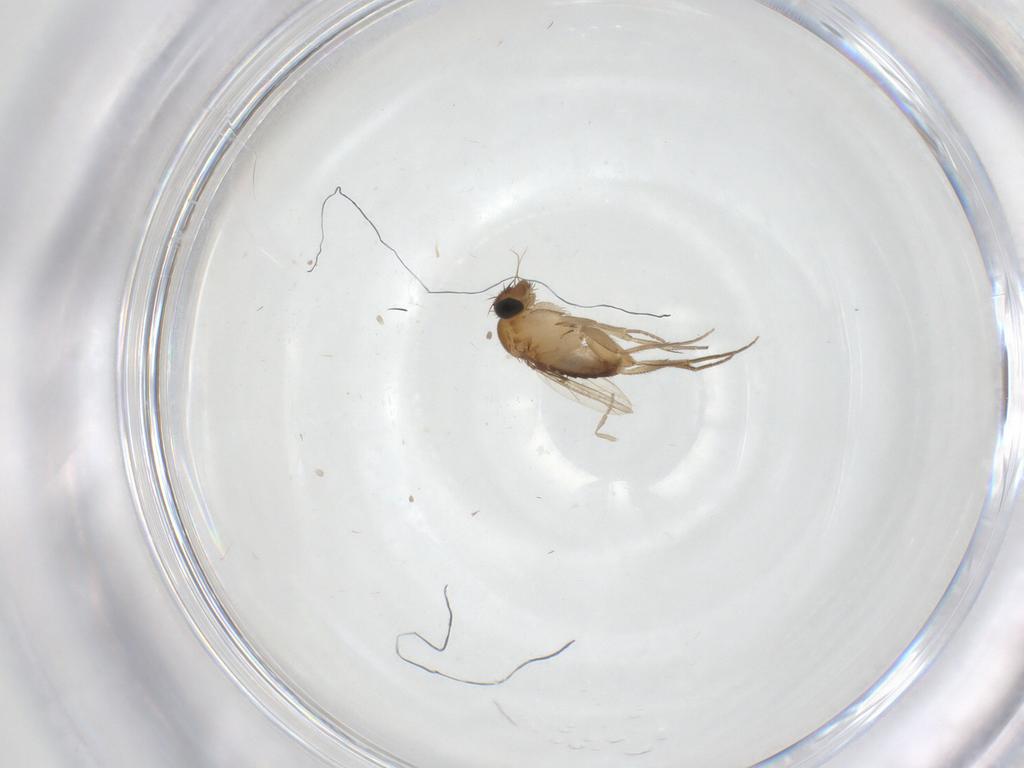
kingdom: Animalia
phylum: Arthropoda
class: Insecta
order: Diptera
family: Phoridae
